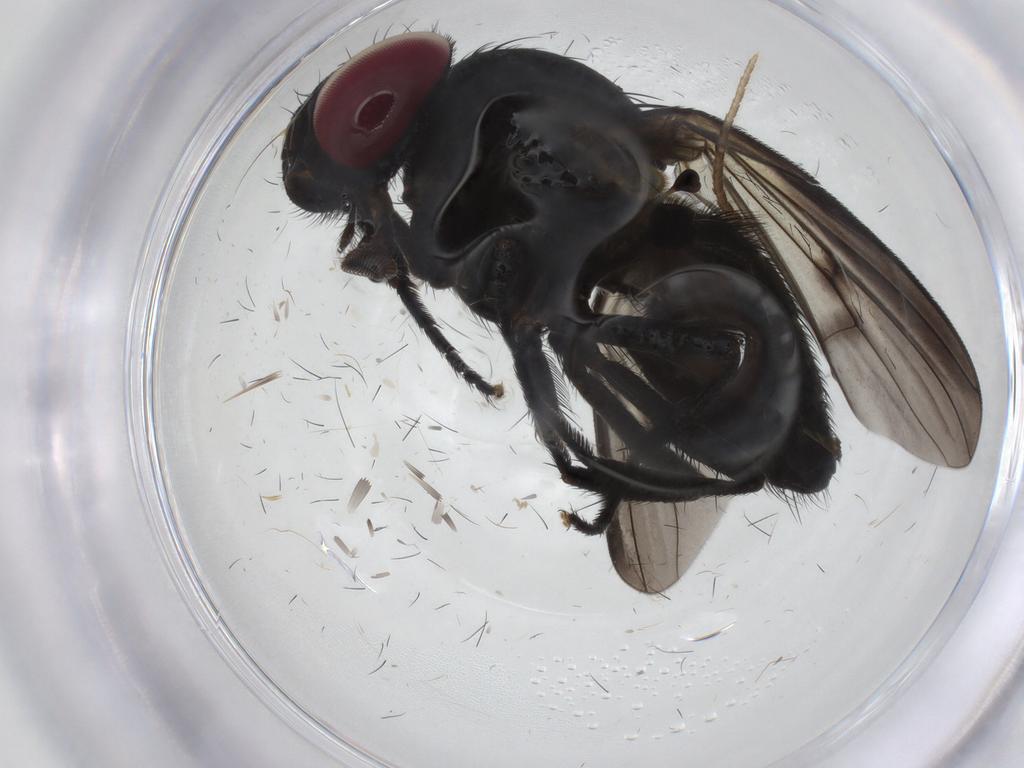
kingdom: Animalia
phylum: Arthropoda
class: Insecta
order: Diptera
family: Fannia
